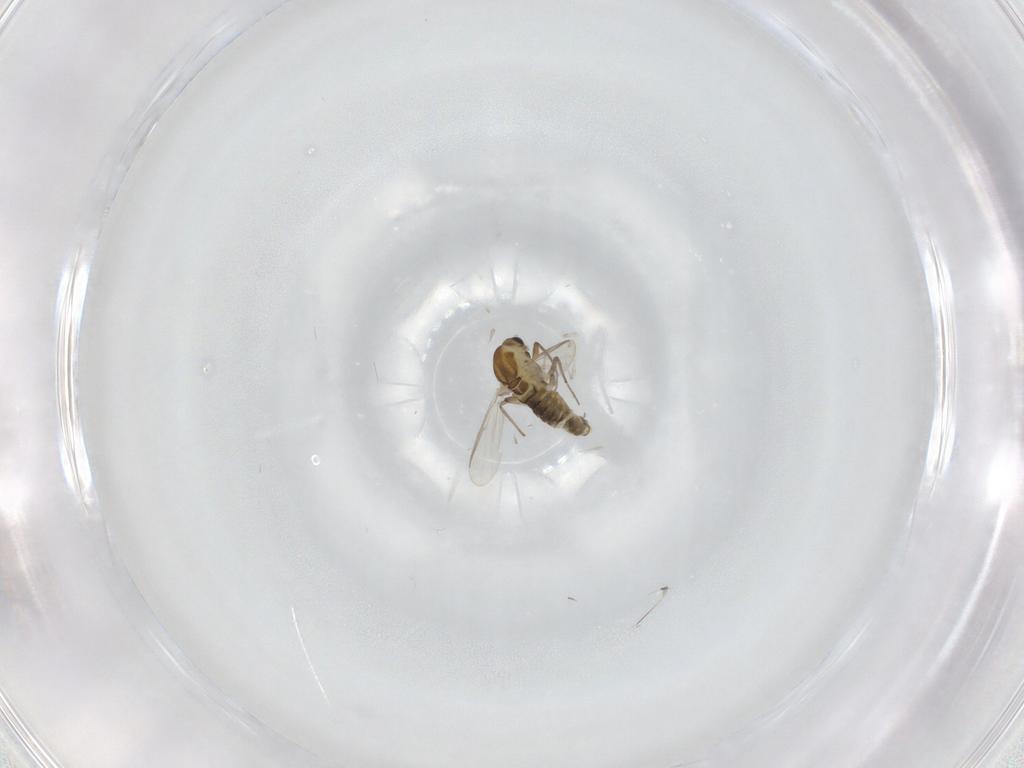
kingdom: Animalia
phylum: Arthropoda
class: Insecta
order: Diptera
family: Chironomidae
